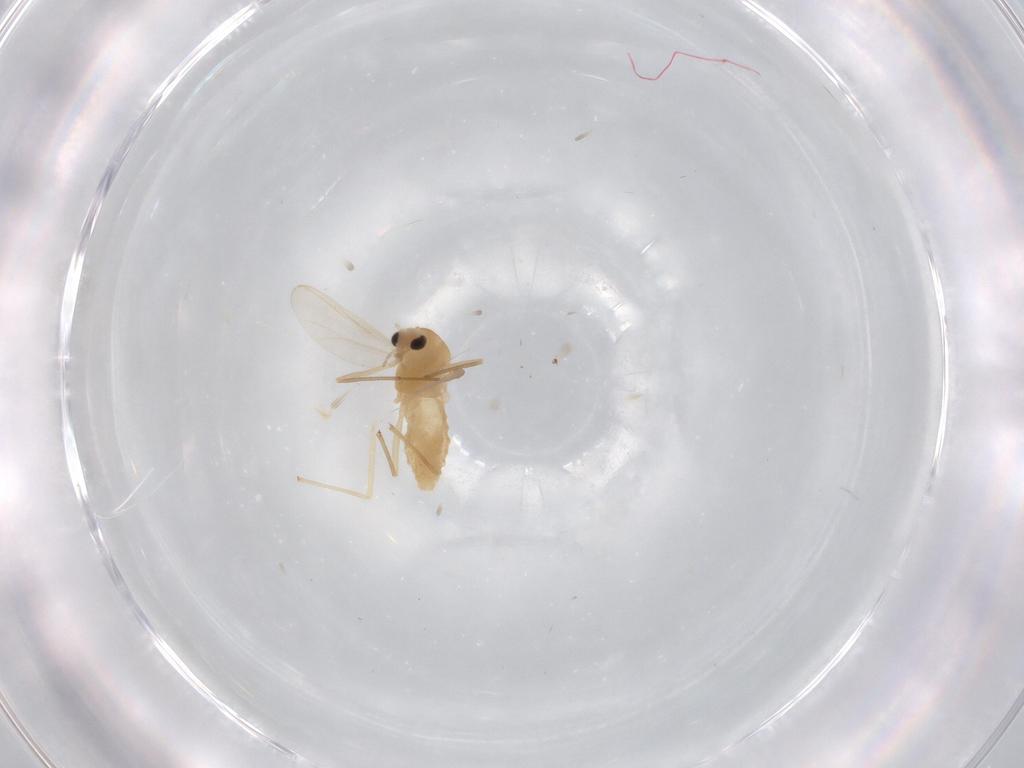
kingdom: Animalia
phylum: Arthropoda
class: Insecta
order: Diptera
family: Chironomidae
